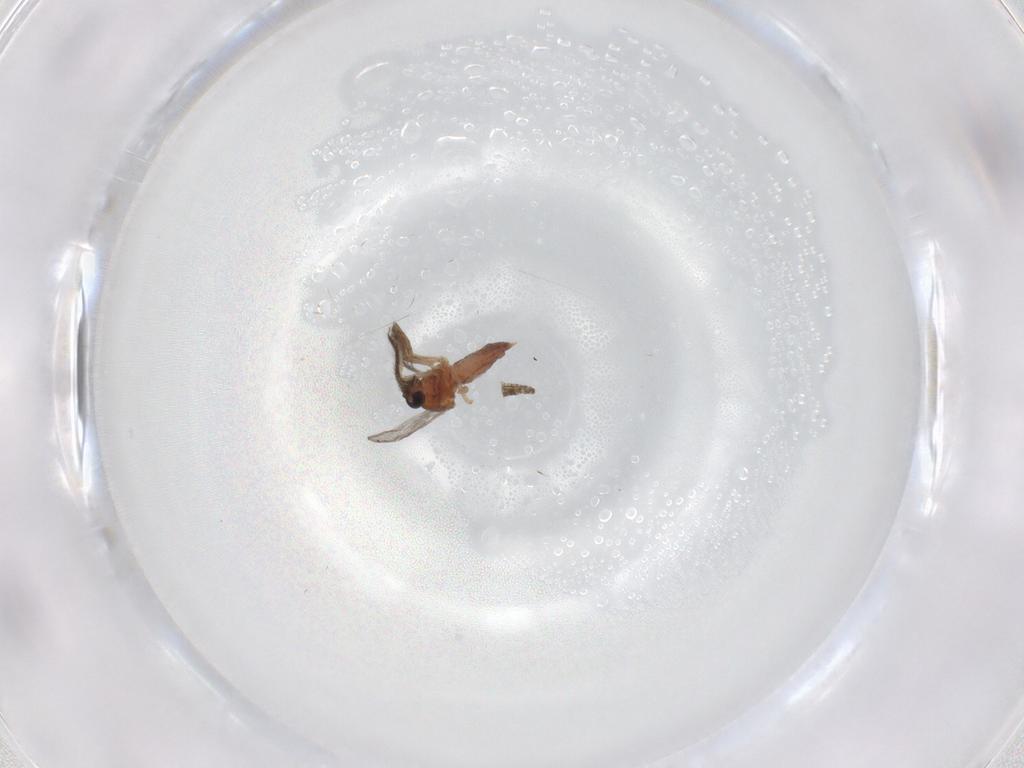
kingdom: Animalia
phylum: Arthropoda
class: Insecta
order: Diptera
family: Ceratopogonidae
